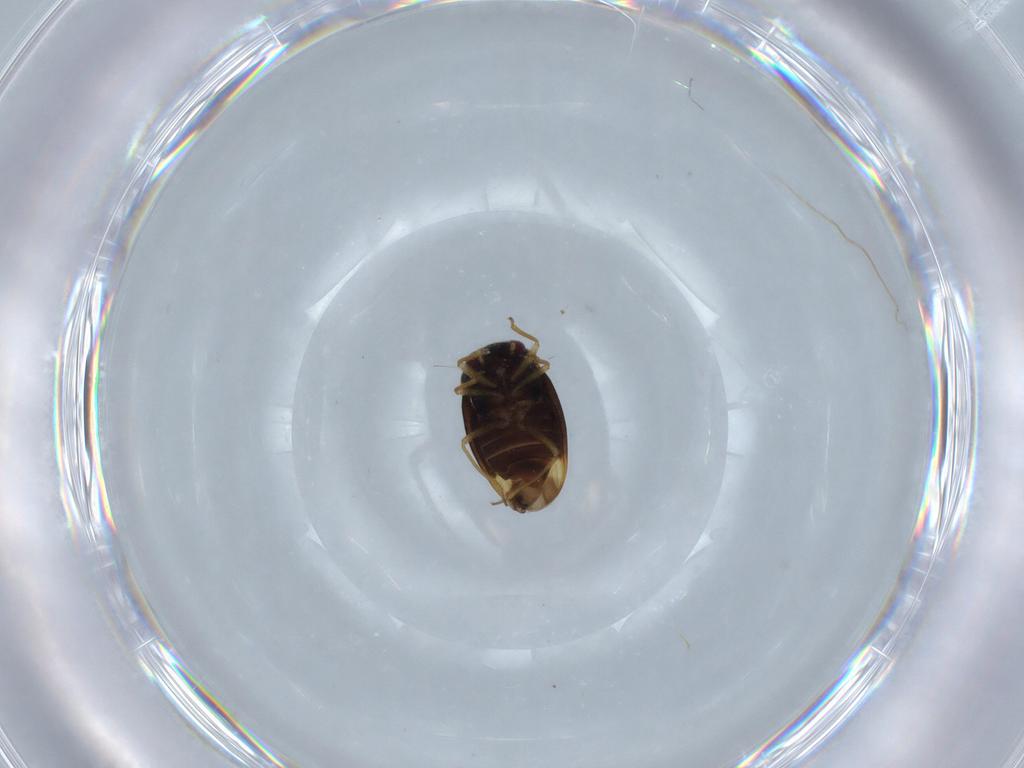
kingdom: Animalia
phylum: Arthropoda
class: Insecta
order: Hemiptera
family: Schizopteridae
